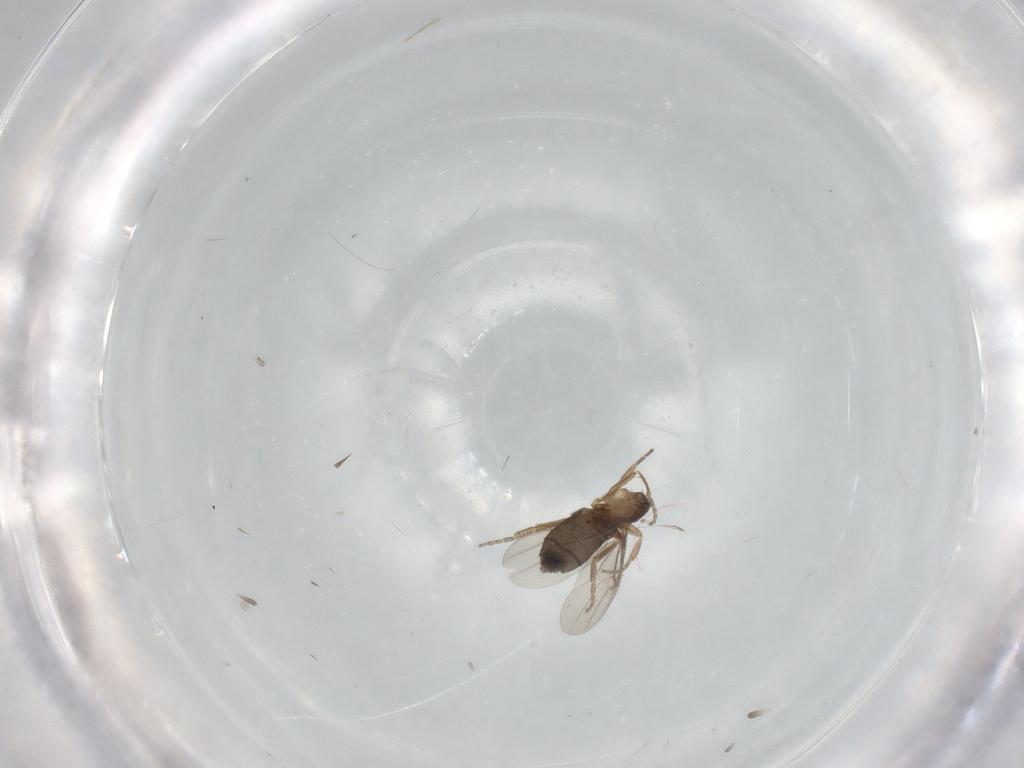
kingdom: Animalia
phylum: Arthropoda
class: Insecta
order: Diptera
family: Phoridae
